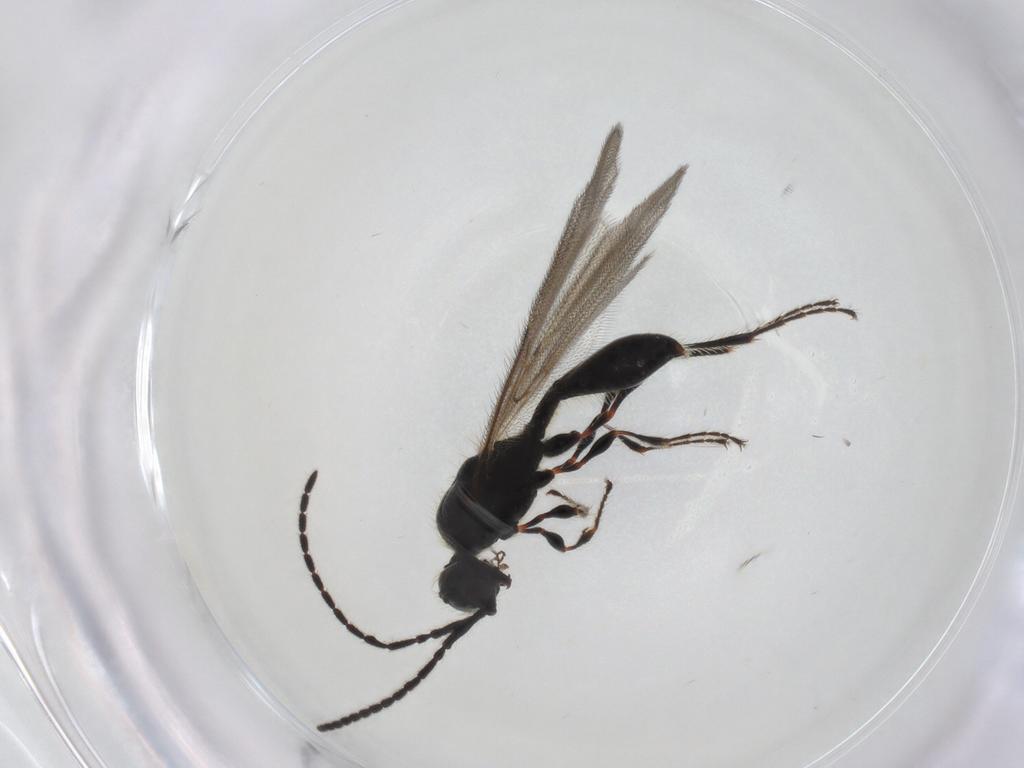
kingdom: Animalia
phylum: Arthropoda
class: Insecta
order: Hymenoptera
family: Diapriidae
